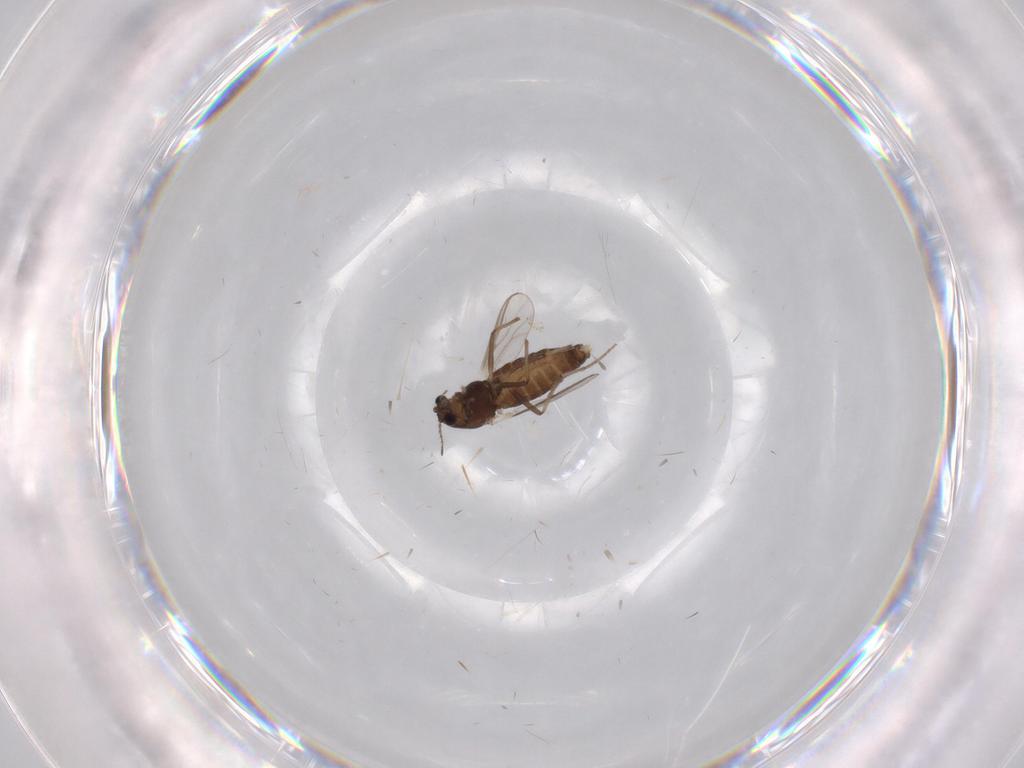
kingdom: Animalia
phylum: Arthropoda
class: Insecta
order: Diptera
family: Chironomidae
